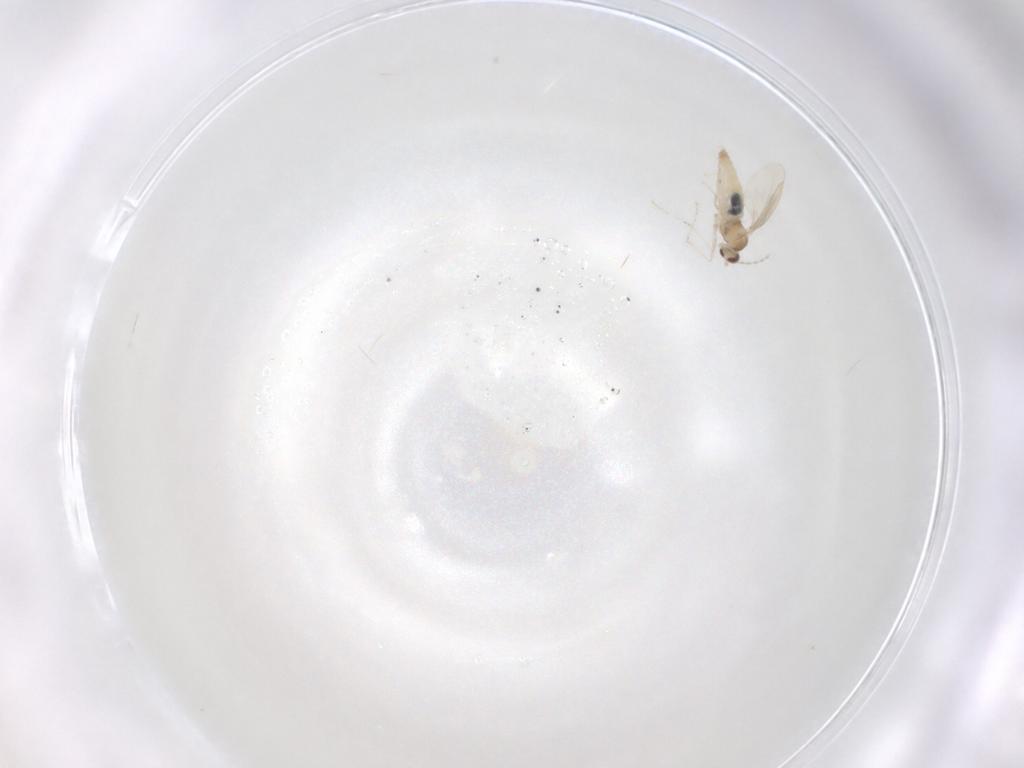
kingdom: Animalia
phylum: Arthropoda
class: Insecta
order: Diptera
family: Cecidomyiidae
